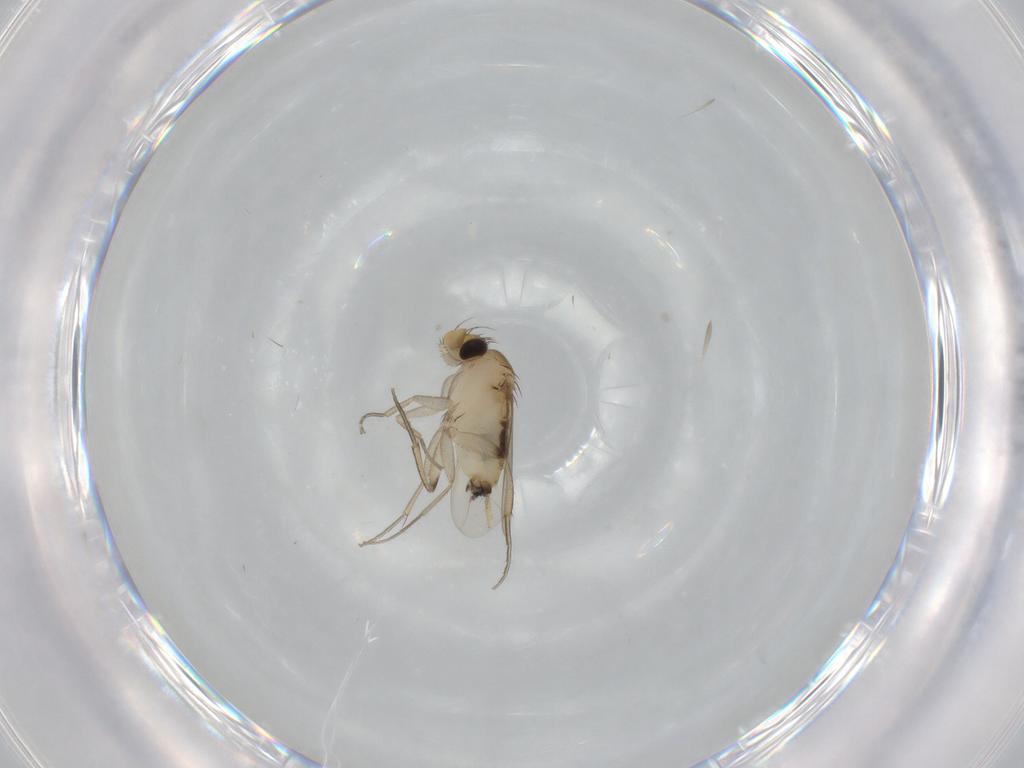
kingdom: Animalia
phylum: Arthropoda
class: Insecta
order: Diptera
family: Phoridae
